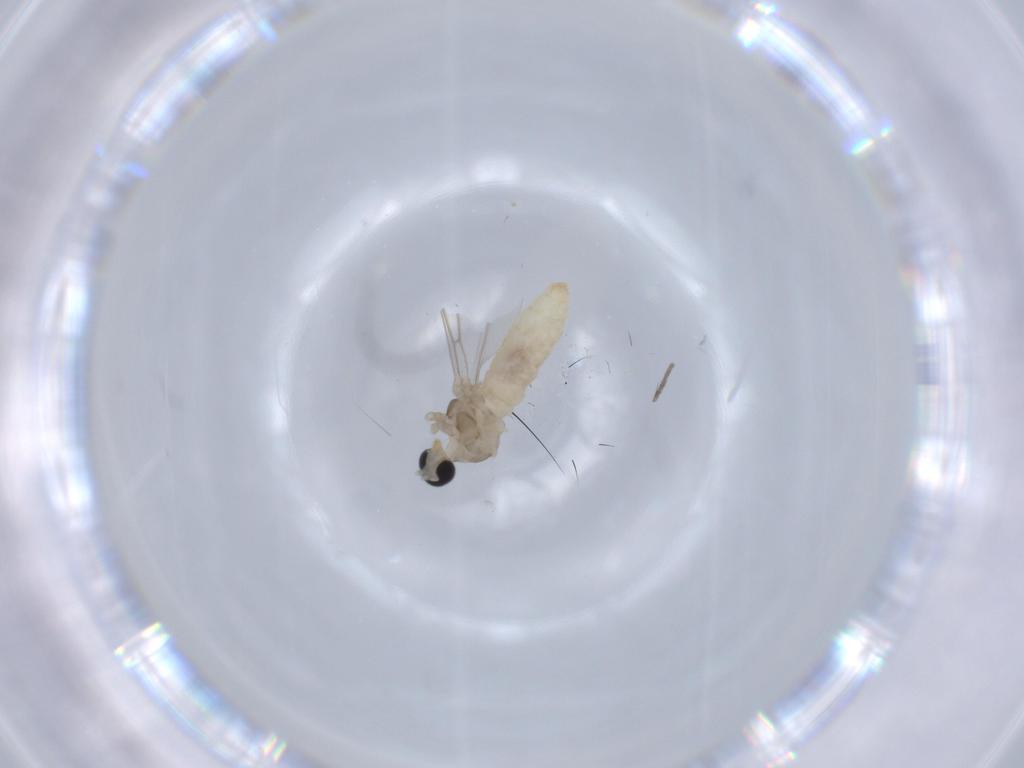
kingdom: Animalia
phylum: Arthropoda
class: Insecta
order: Diptera
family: Cecidomyiidae
